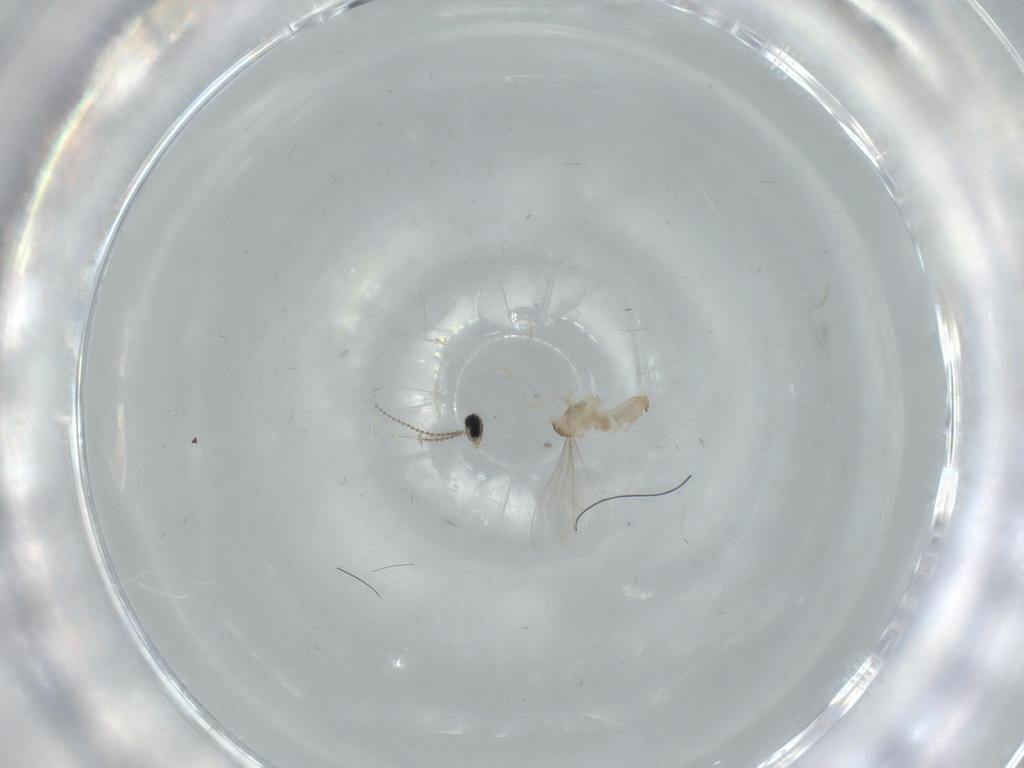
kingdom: Animalia
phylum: Arthropoda
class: Insecta
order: Diptera
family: Cecidomyiidae
